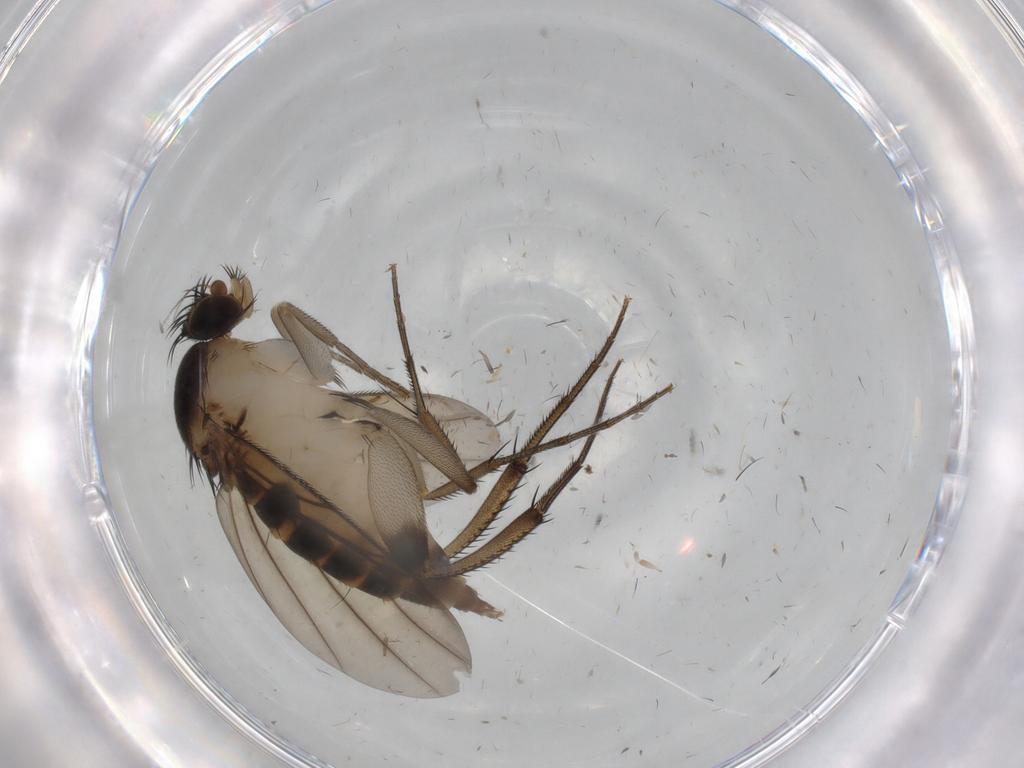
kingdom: Animalia
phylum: Arthropoda
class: Insecta
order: Diptera
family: Phoridae
